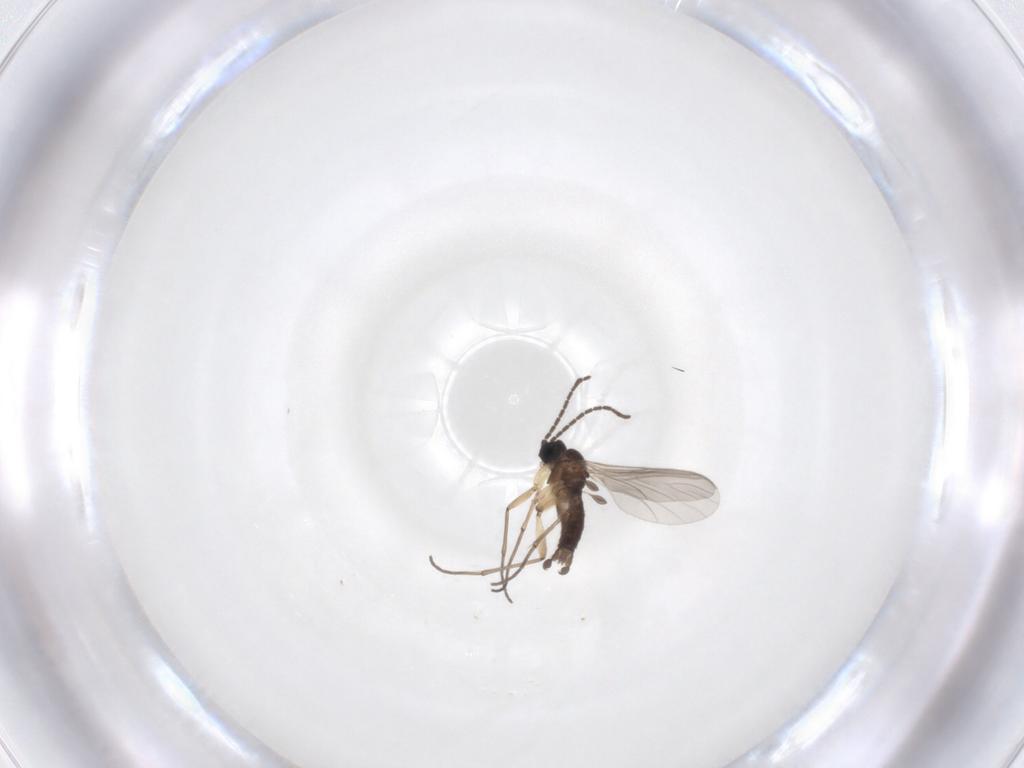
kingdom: Animalia
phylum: Arthropoda
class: Insecta
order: Diptera
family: Sciaridae
